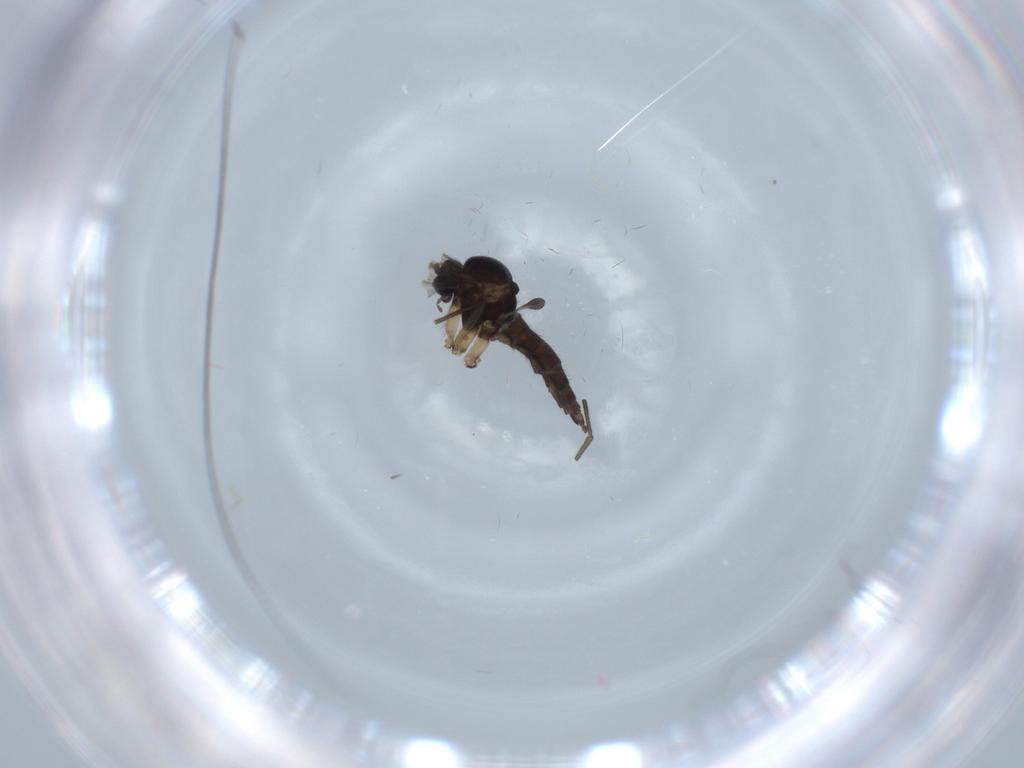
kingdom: Animalia
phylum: Arthropoda
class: Insecta
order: Diptera
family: Sciaridae
